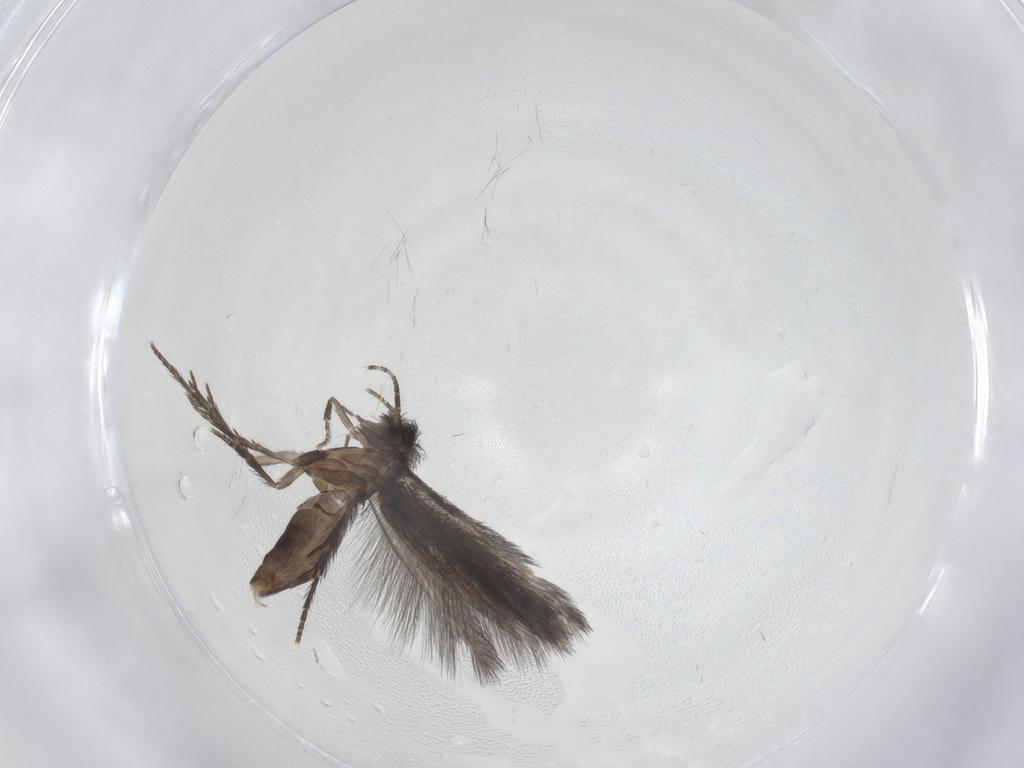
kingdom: Animalia
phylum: Arthropoda
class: Insecta
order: Trichoptera
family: Hydroptilidae
